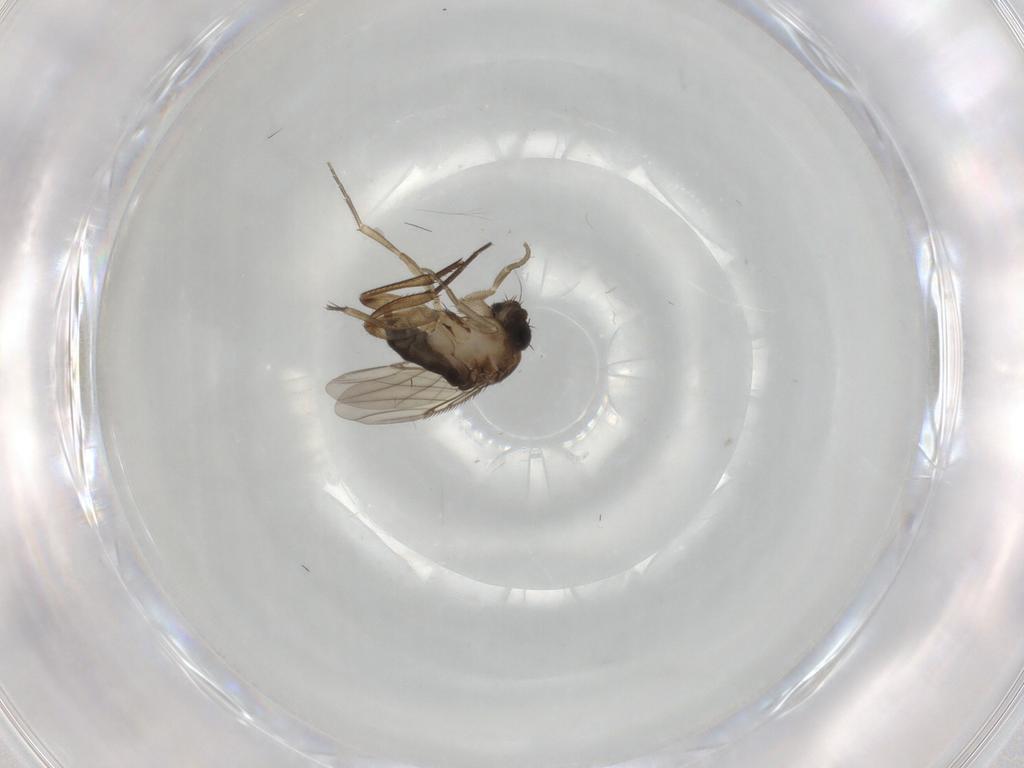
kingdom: Animalia
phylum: Arthropoda
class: Insecta
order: Diptera
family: Phoridae
